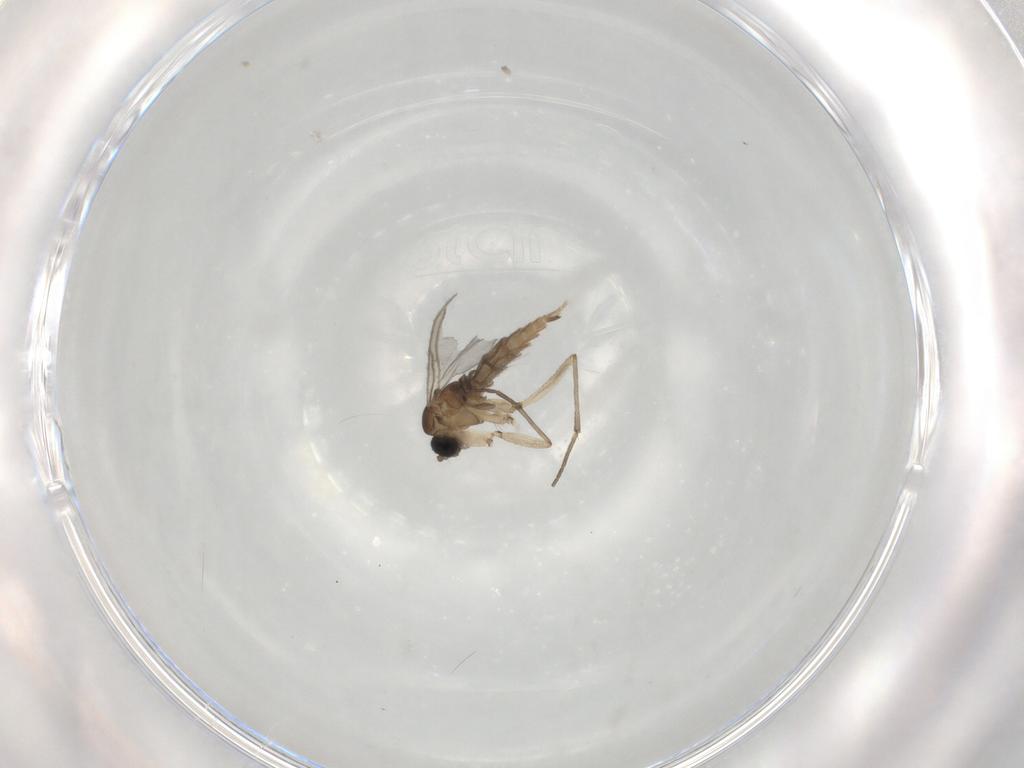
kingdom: Animalia
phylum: Arthropoda
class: Insecta
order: Diptera
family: Sciaridae
